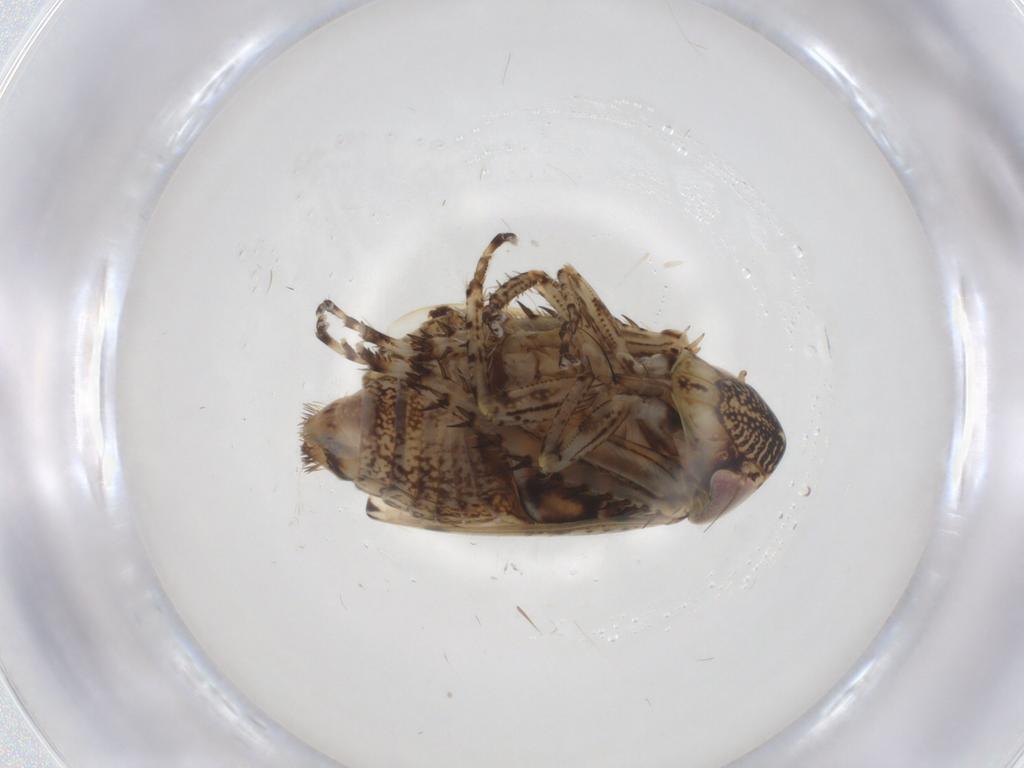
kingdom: Animalia
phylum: Arthropoda
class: Insecta
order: Hemiptera
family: Cicadellidae
